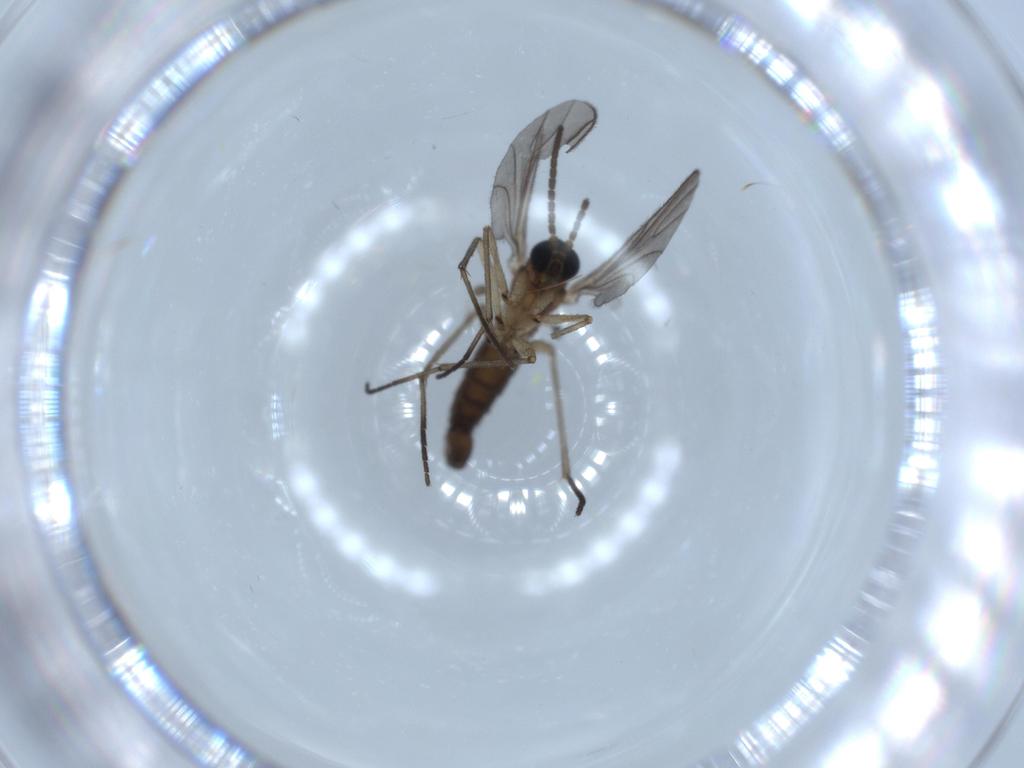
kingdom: Animalia
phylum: Arthropoda
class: Insecta
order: Diptera
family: Sciaridae
